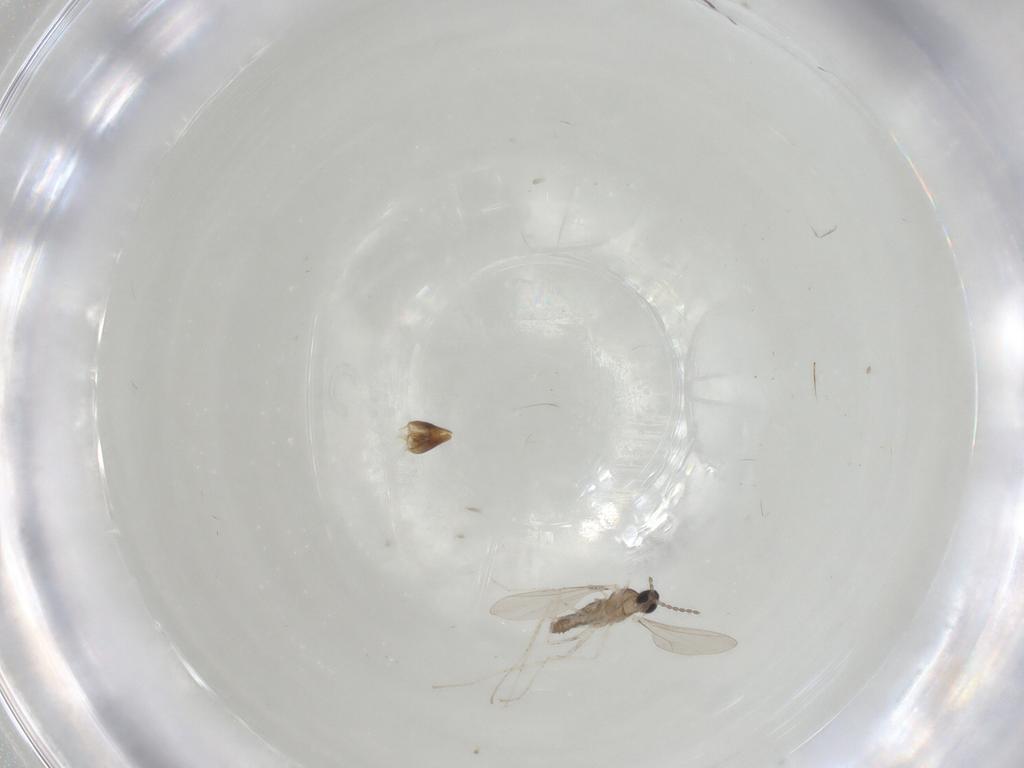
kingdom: Animalia
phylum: Arthropoda
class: Insecta
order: Diptera
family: Cecidomyiidae
